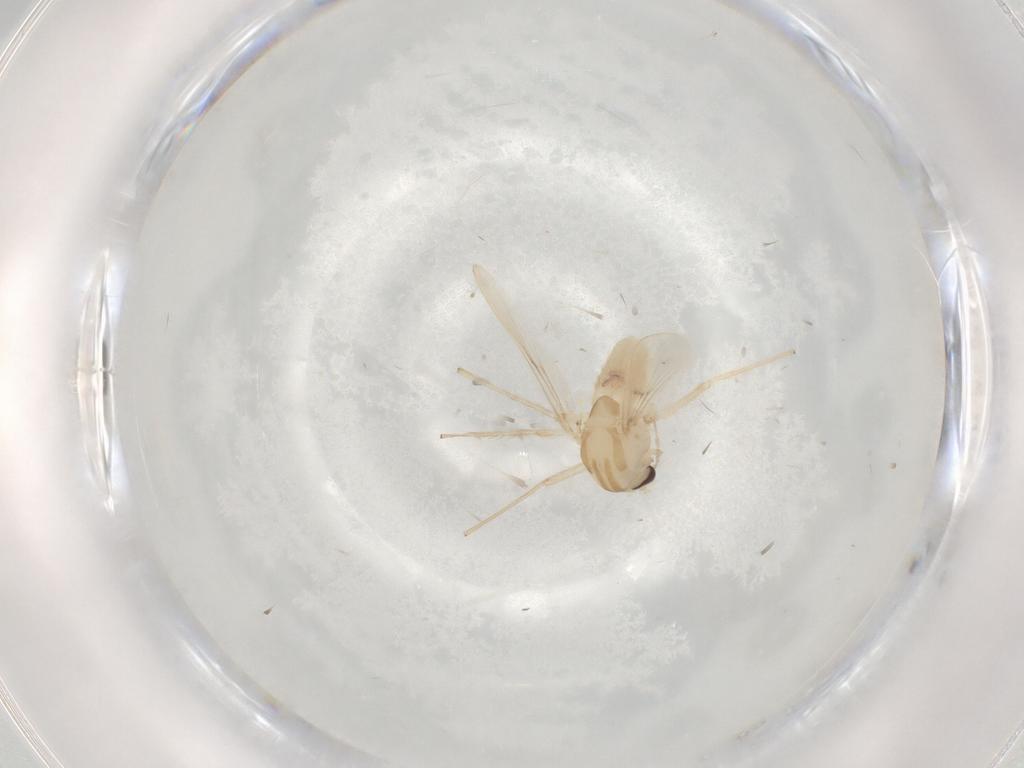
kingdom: Animalia
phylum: Arthropoda
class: Insecta
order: Diptera
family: Chironomidae
